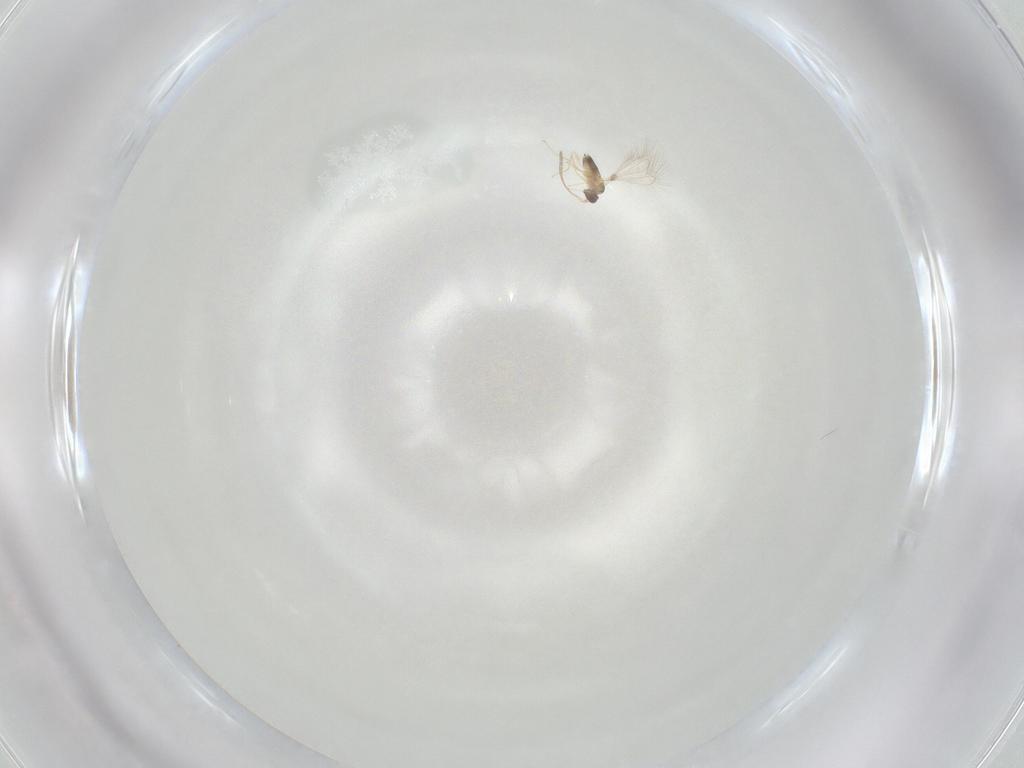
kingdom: Animalia
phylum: Arthropoda
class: Insecta
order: Hymenoptera
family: Mymaridae
